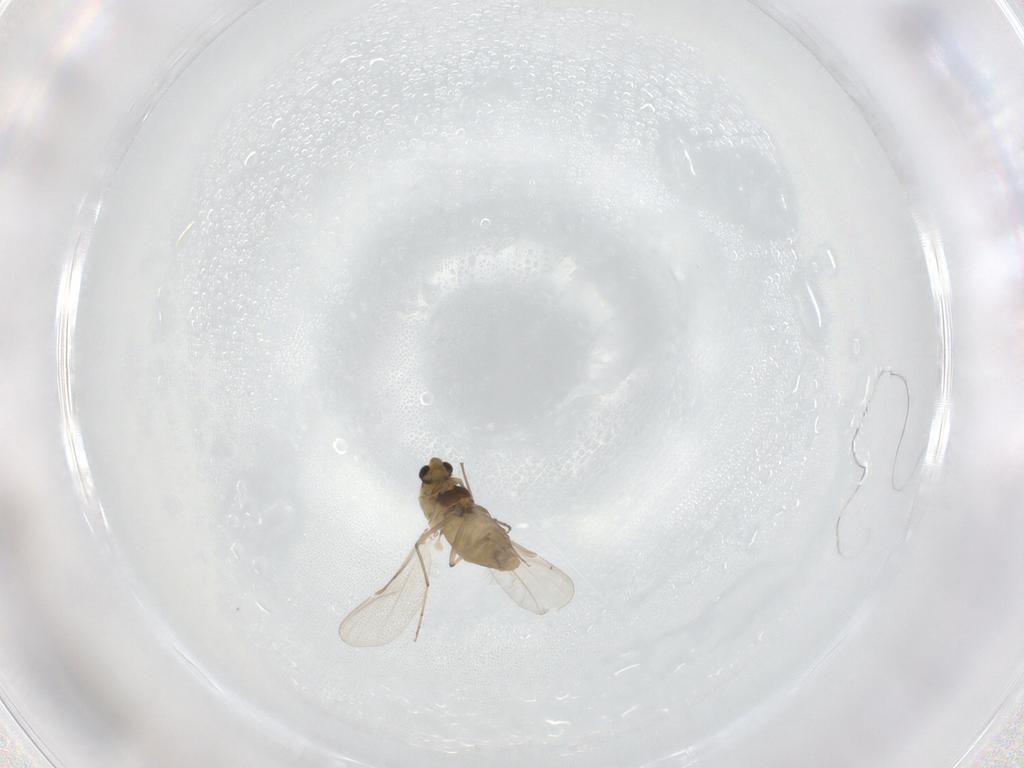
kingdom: Animalia
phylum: Arthropoda
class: Insecta
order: Diptera
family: Chironomidae
